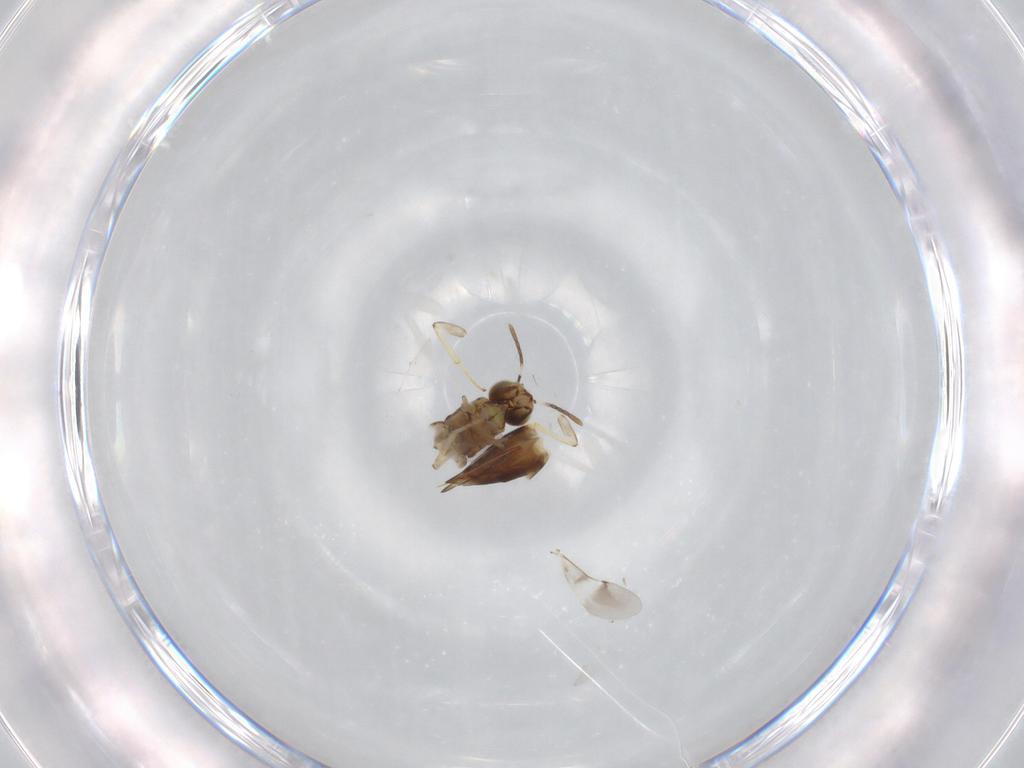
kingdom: Animalia
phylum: Arthropoda
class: Insecta
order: Hymenoptera
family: Encyrtidae
